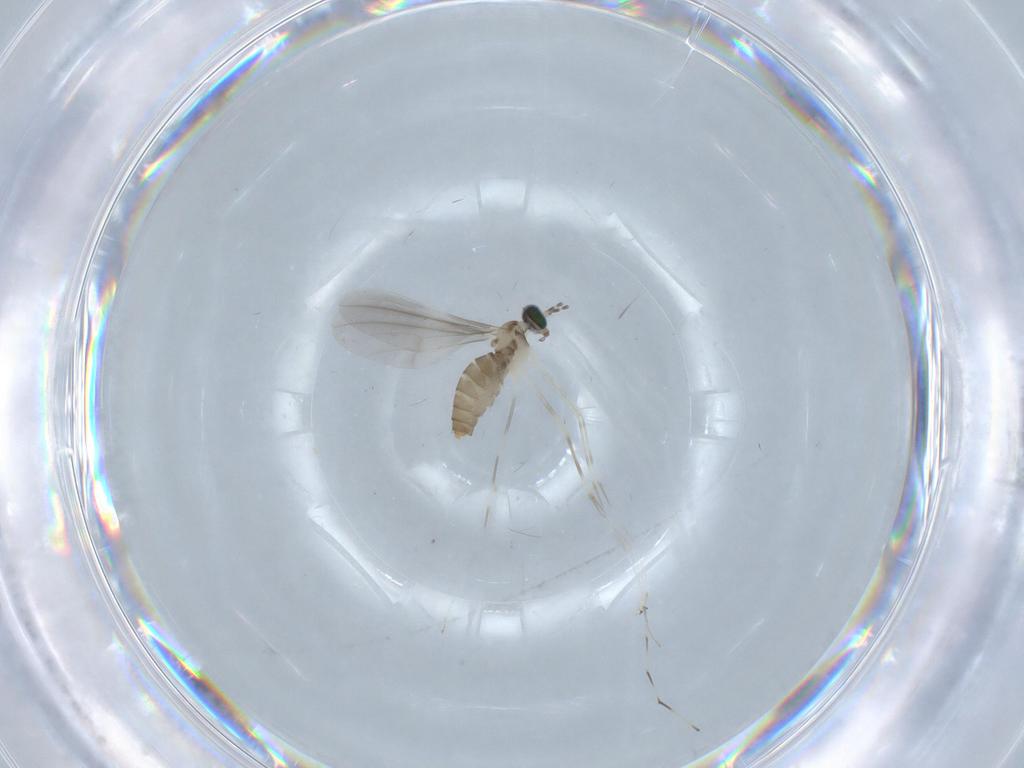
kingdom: Animalia
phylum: Arthropoda
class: Insecta
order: Diptera
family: Cecidomyiidae
